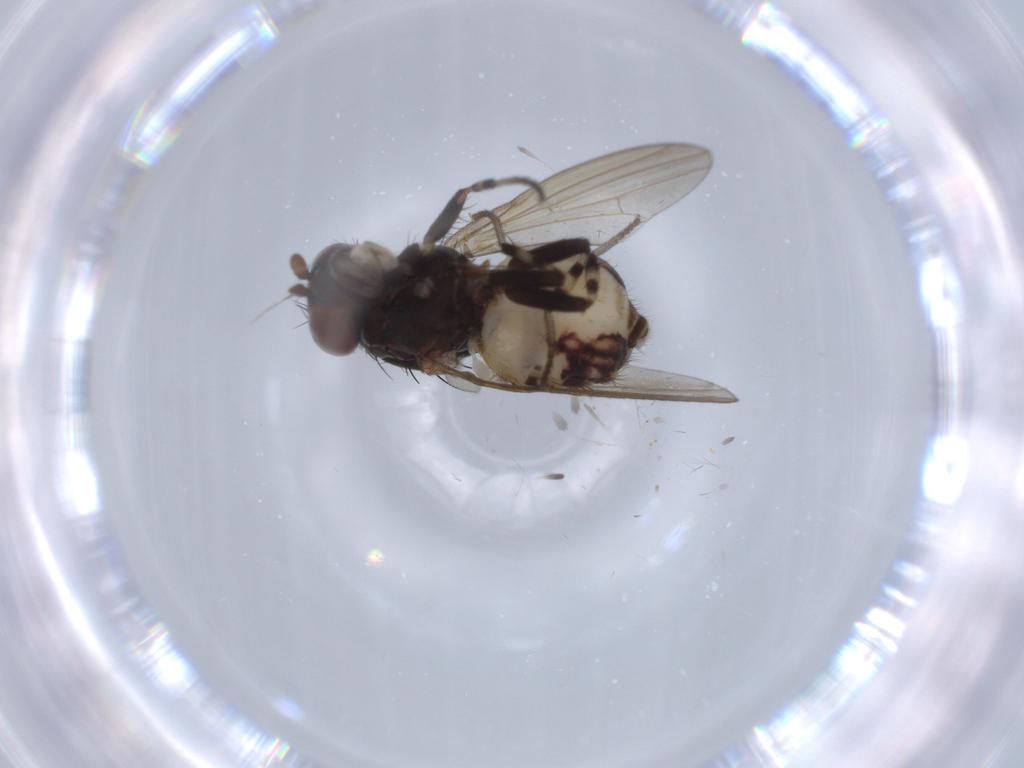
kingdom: Animalia
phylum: Arthropoda
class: Insecta
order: Diptera
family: Sciaridae
